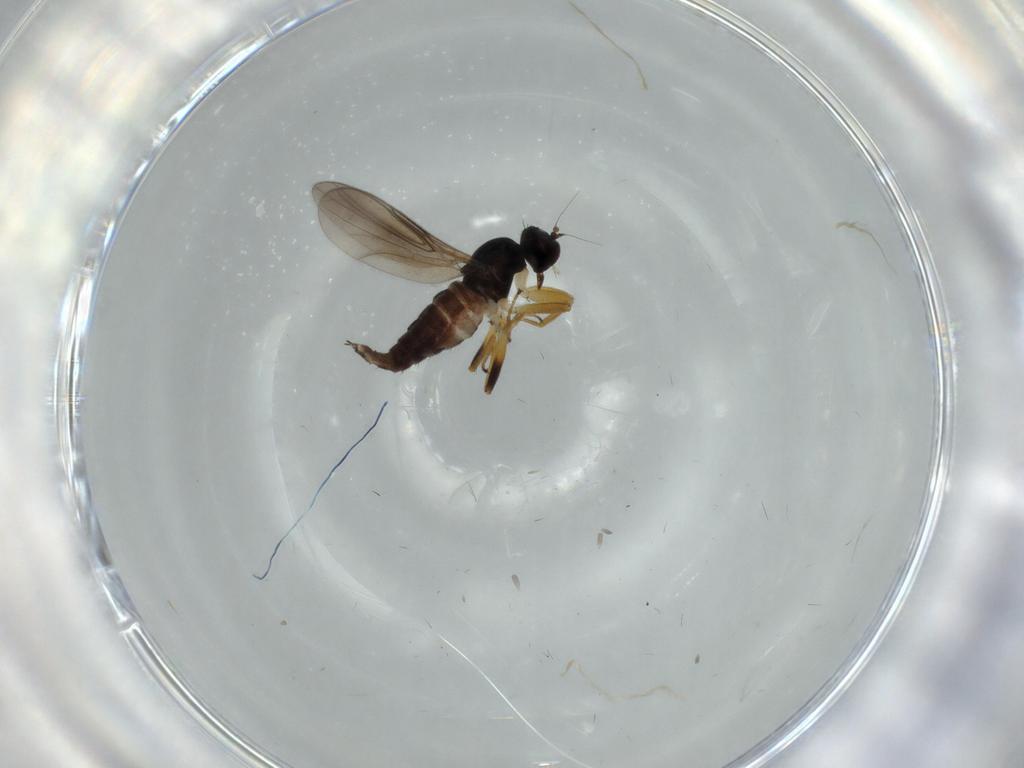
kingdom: Animalia
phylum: Arthropoda
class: Insecta
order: Diptera
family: Hybotidae
